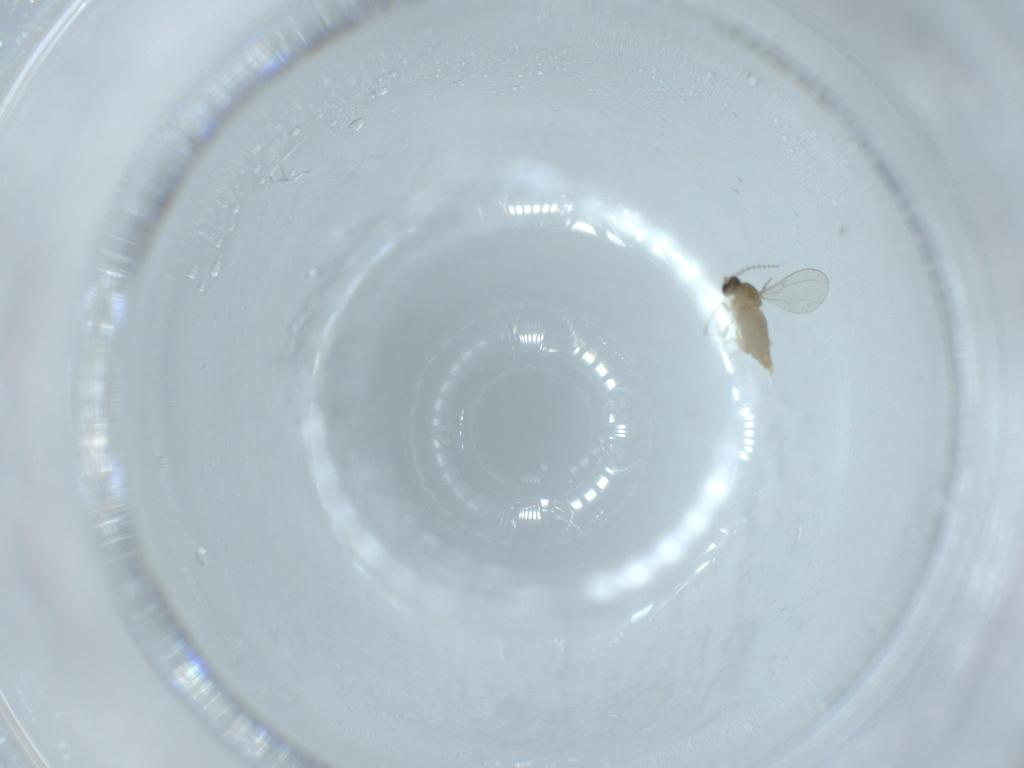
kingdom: Animalia
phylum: Arthropoda
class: Insecta
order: Diptera
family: Cecidomyiidae
